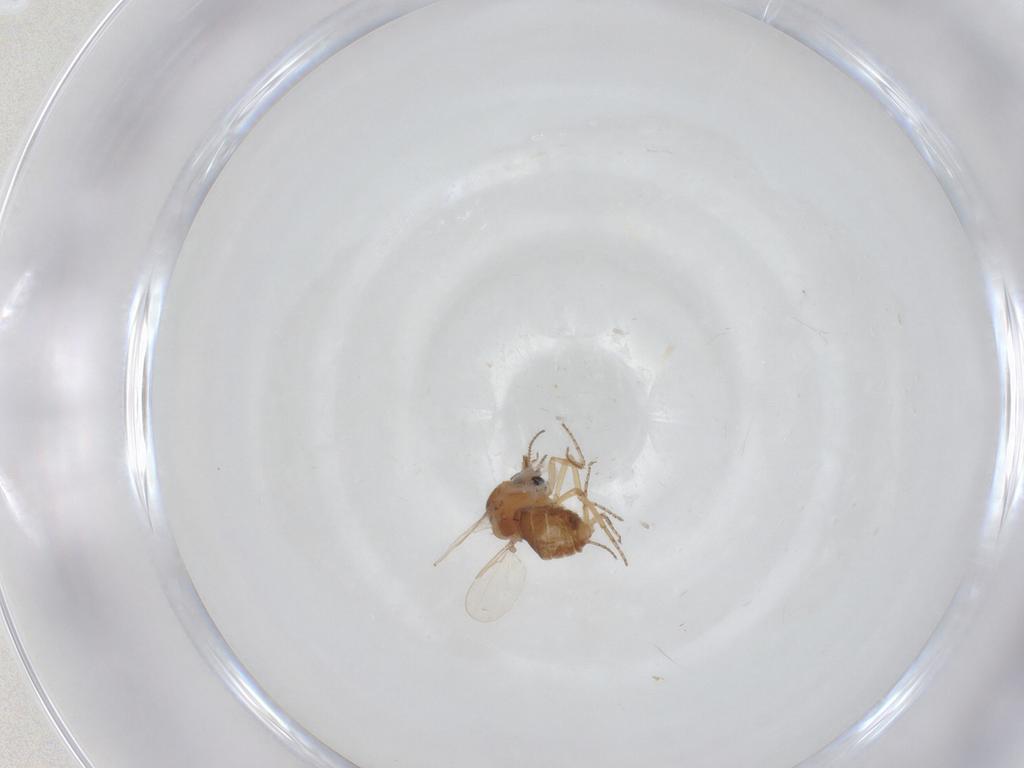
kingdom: Animalia
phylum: Arthropoda
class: Insecta
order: Diptera
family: Ceratopogonidae
